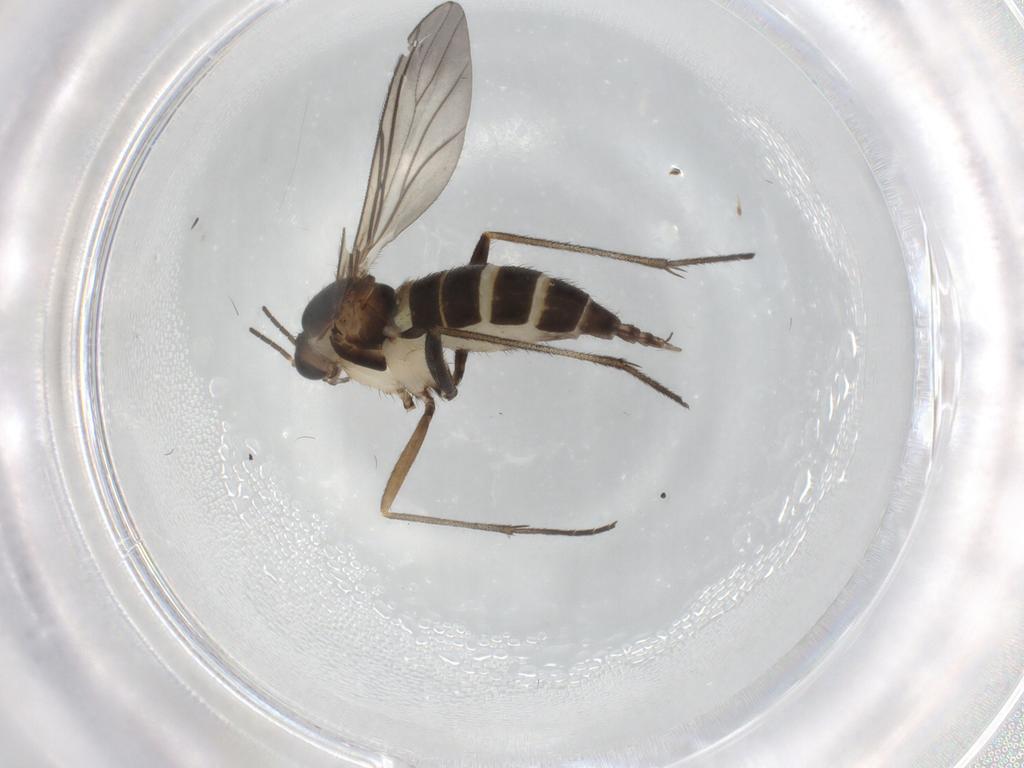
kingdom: Animalia
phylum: Arthropoda
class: Insecta
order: Diptera
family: Sciaridae
